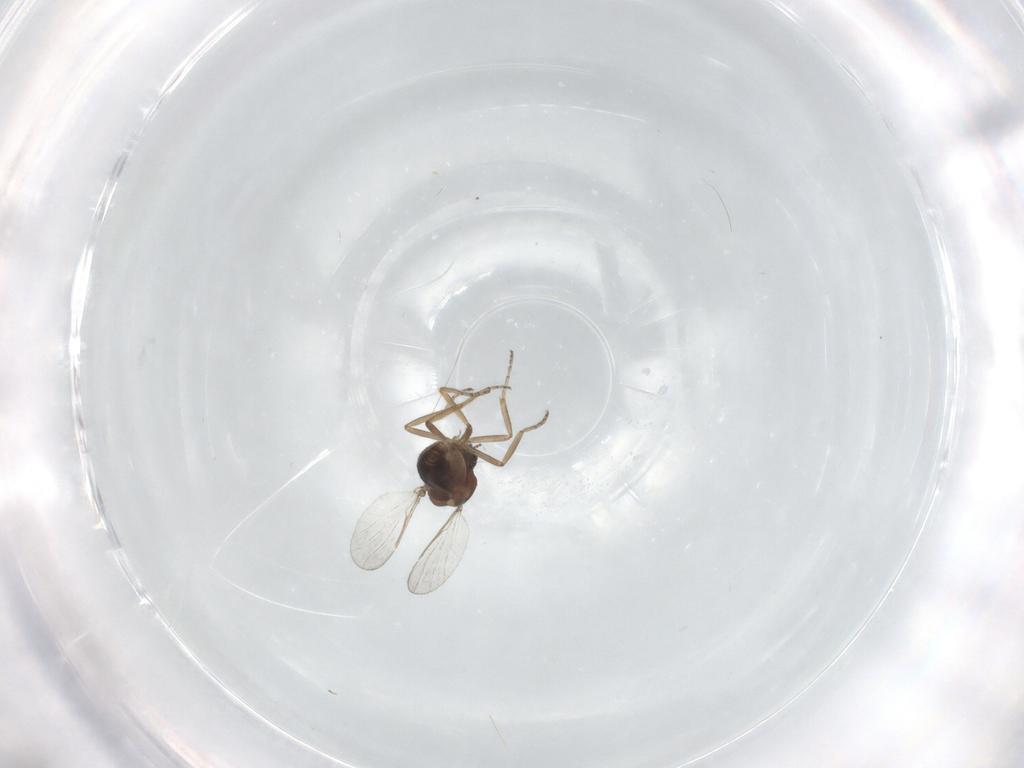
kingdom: Animalia
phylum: Arthropoda
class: Insecta
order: Diptera
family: Ceratopogonidae
